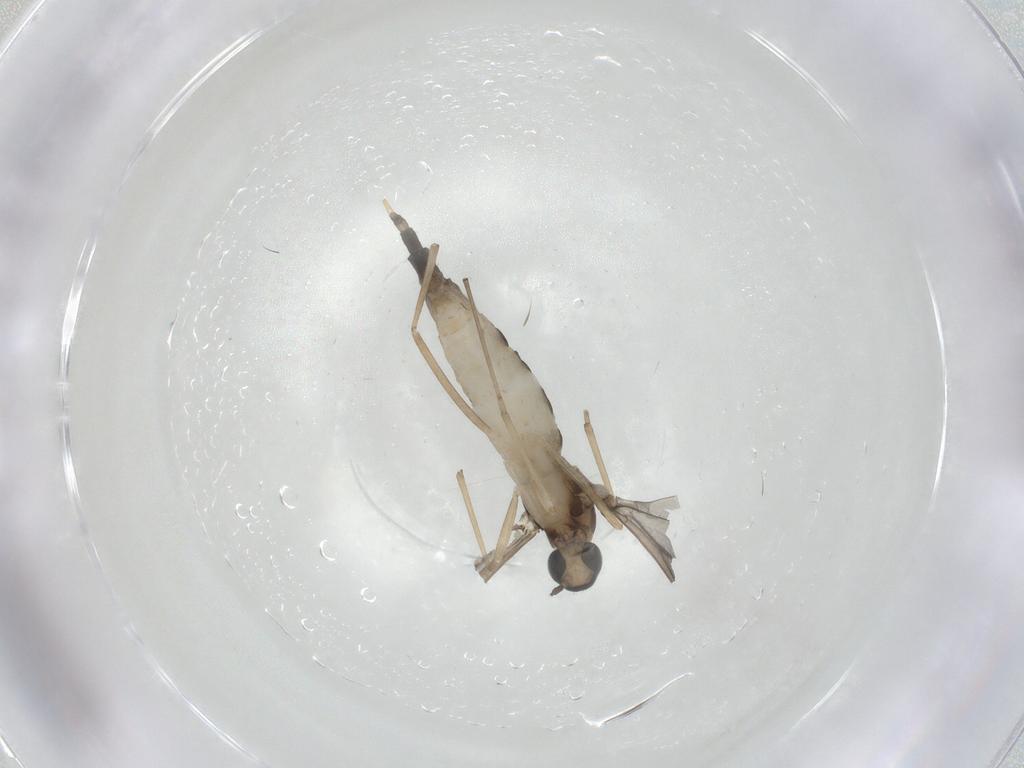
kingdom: Animalia
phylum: Arthropoda
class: Insecta
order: Diptera
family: Cecidomyiidae
